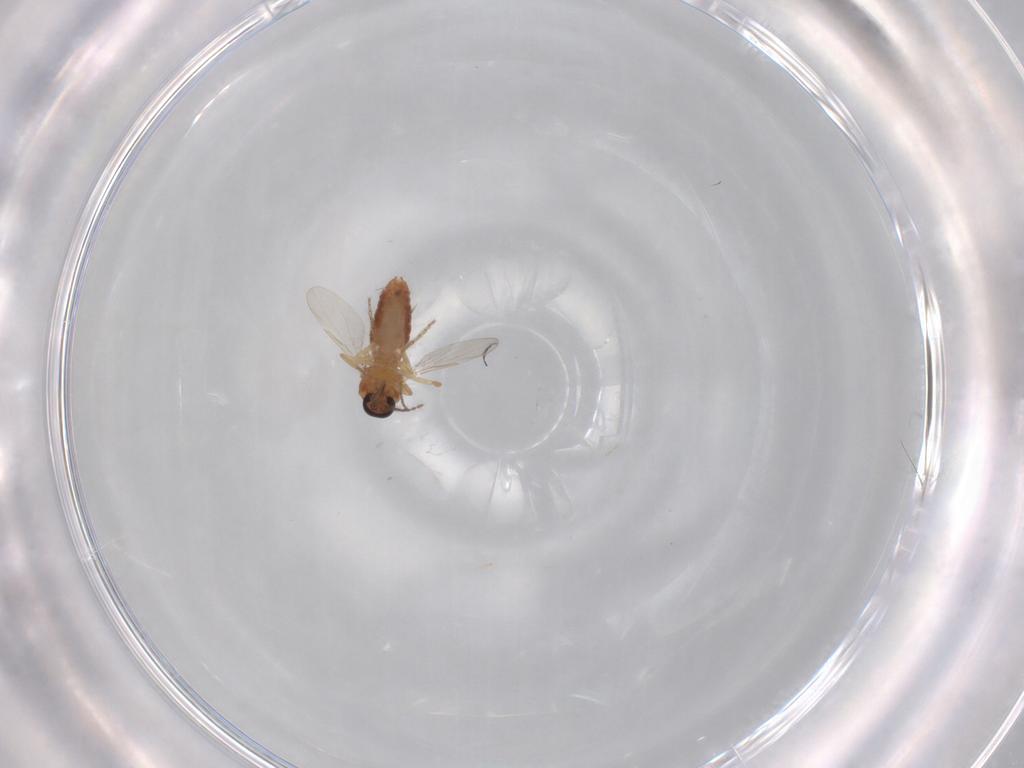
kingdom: Animalia
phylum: Arthropoda
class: Insecta
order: Diptera
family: Ceratopogonidae
